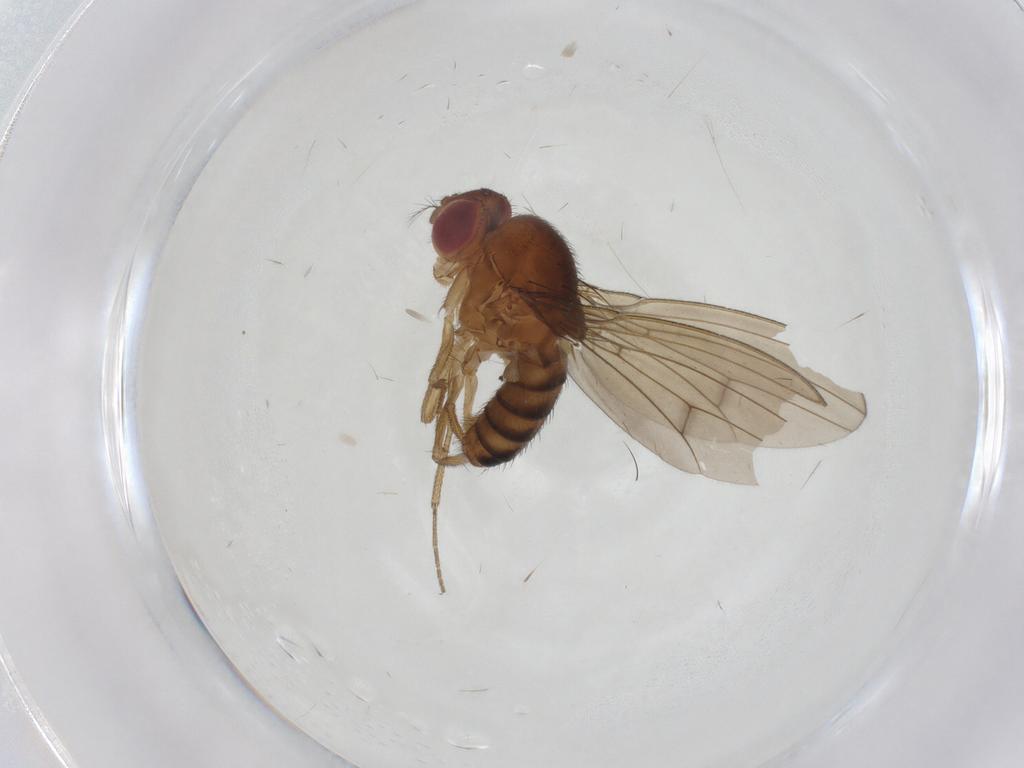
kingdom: Animalia
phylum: Arthropoda
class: Insecta
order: Diptera
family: Drosophilidae
